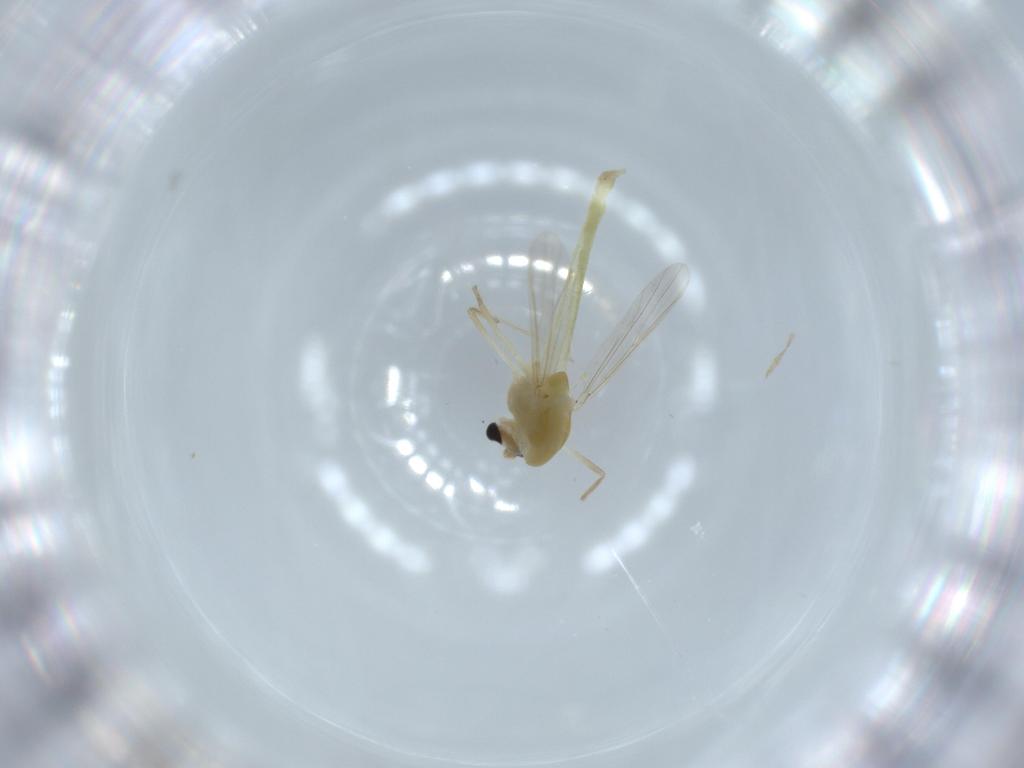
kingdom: Animalia
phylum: Arthropoda
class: Insecta
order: Diptera
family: Chironomidae
